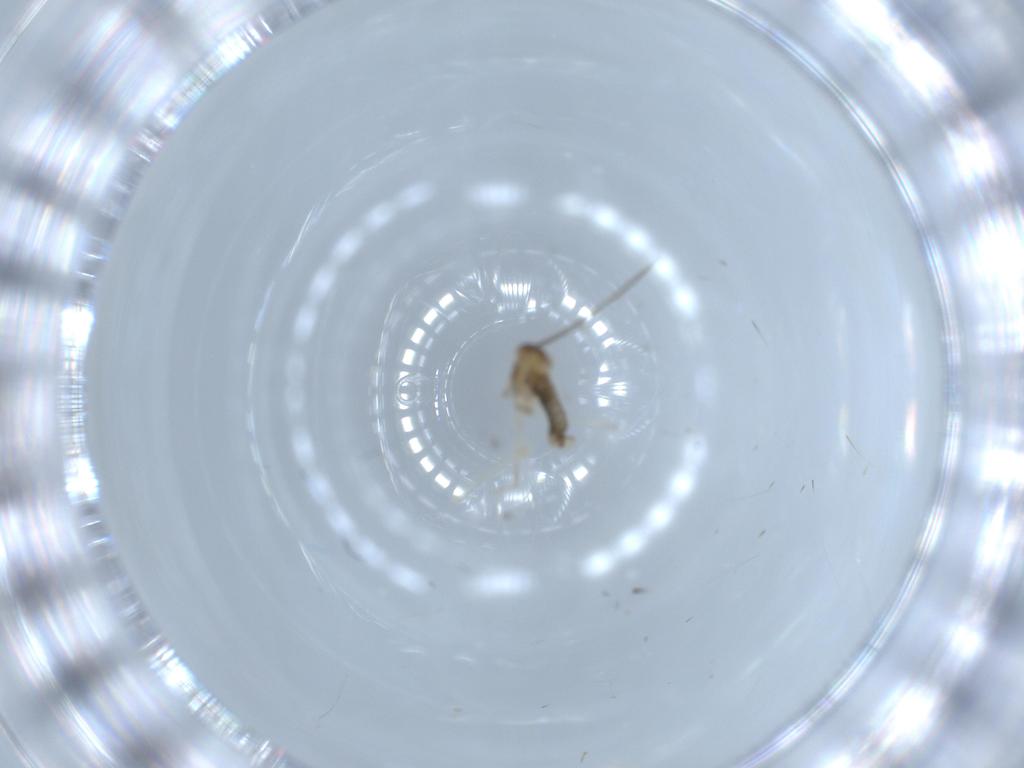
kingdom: Animalia
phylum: Arthropoda
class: Insecta
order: Diptera
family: Cecidomyiidae
